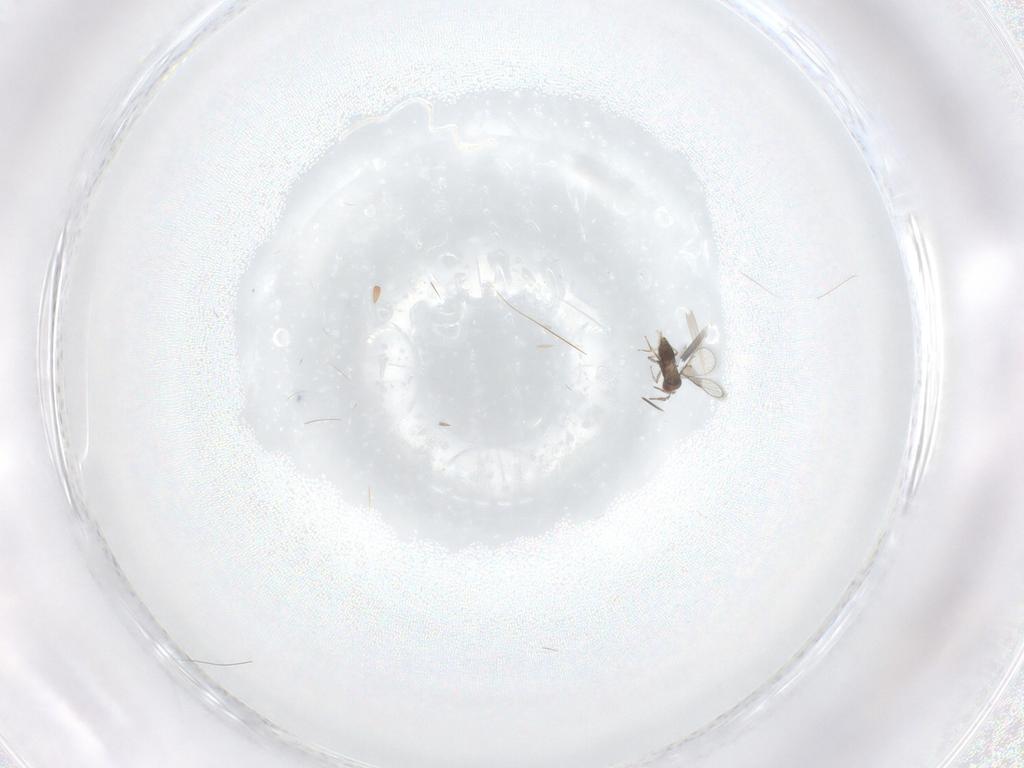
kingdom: Animalia
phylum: Arthropoda
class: Insecta
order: Hymenoptera
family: Trichogrammatidae
